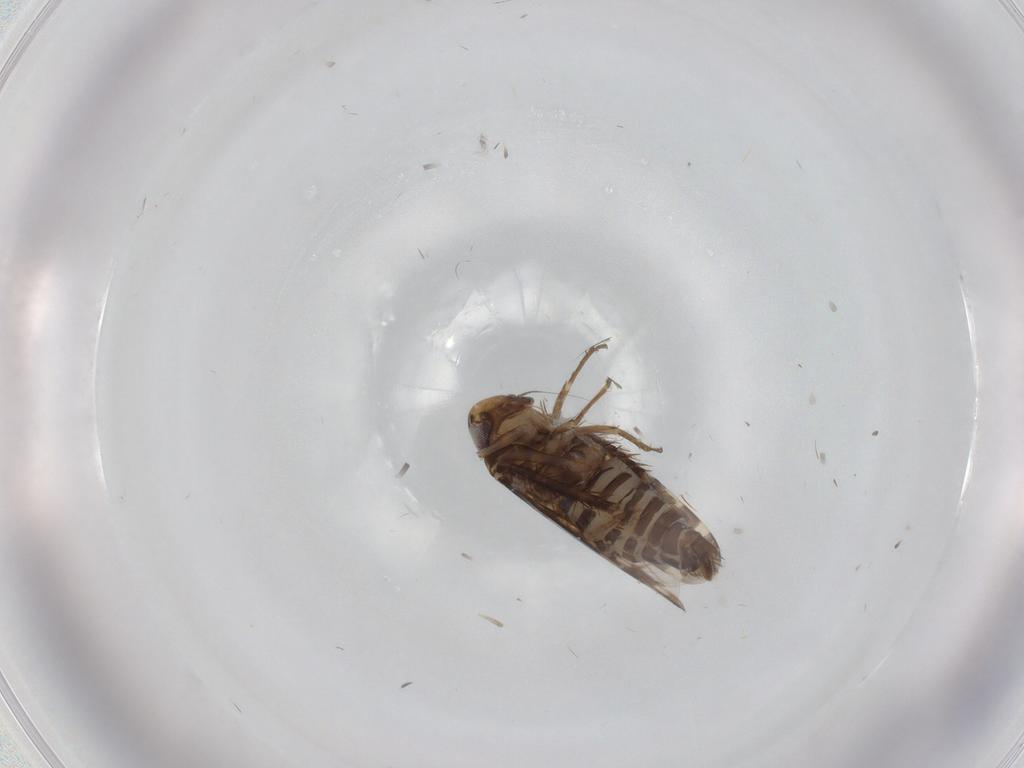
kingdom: Animalia
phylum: Arthropoda
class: Insecta
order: Hemiptera
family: Cicadellidae
